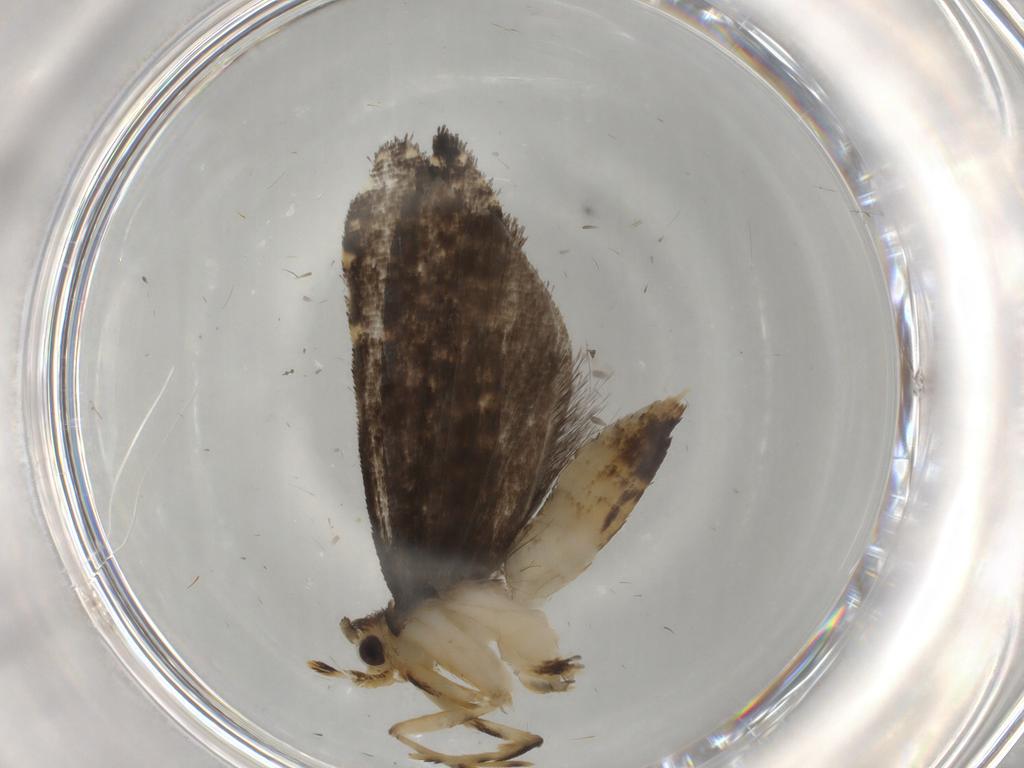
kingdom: Animalia
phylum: Arthropoda
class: Insecta
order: Lepidoptera
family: Tineidae
